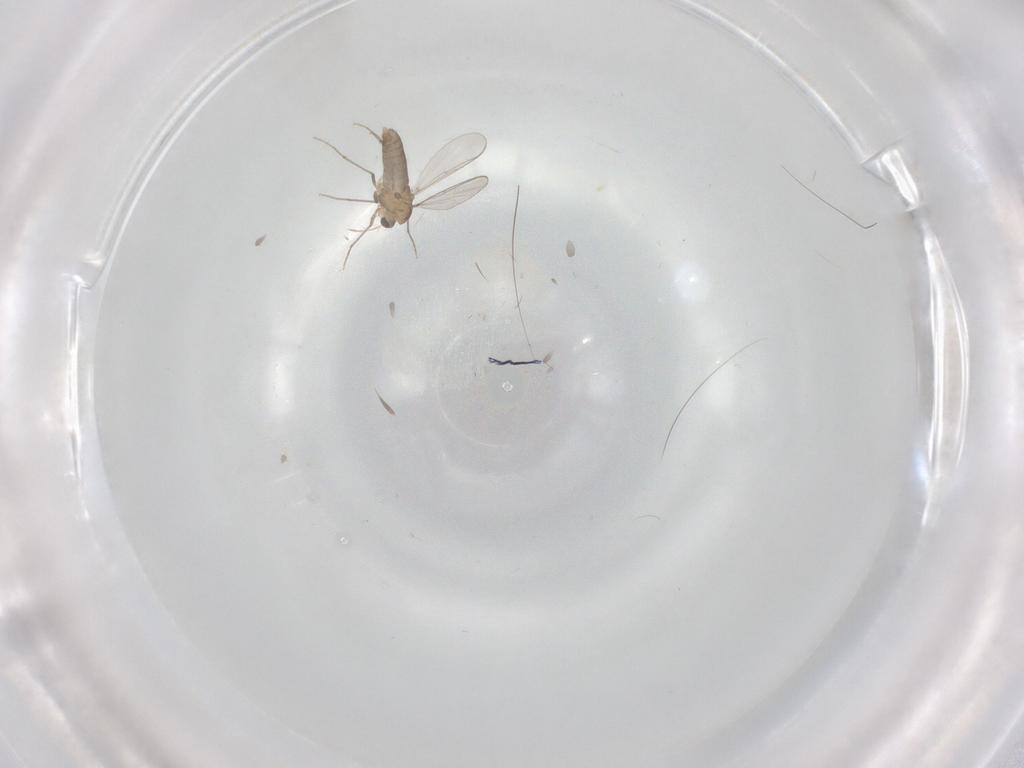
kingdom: Animalia
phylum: Arthropoda
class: Insecta
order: Diptera
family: Chironomidae
